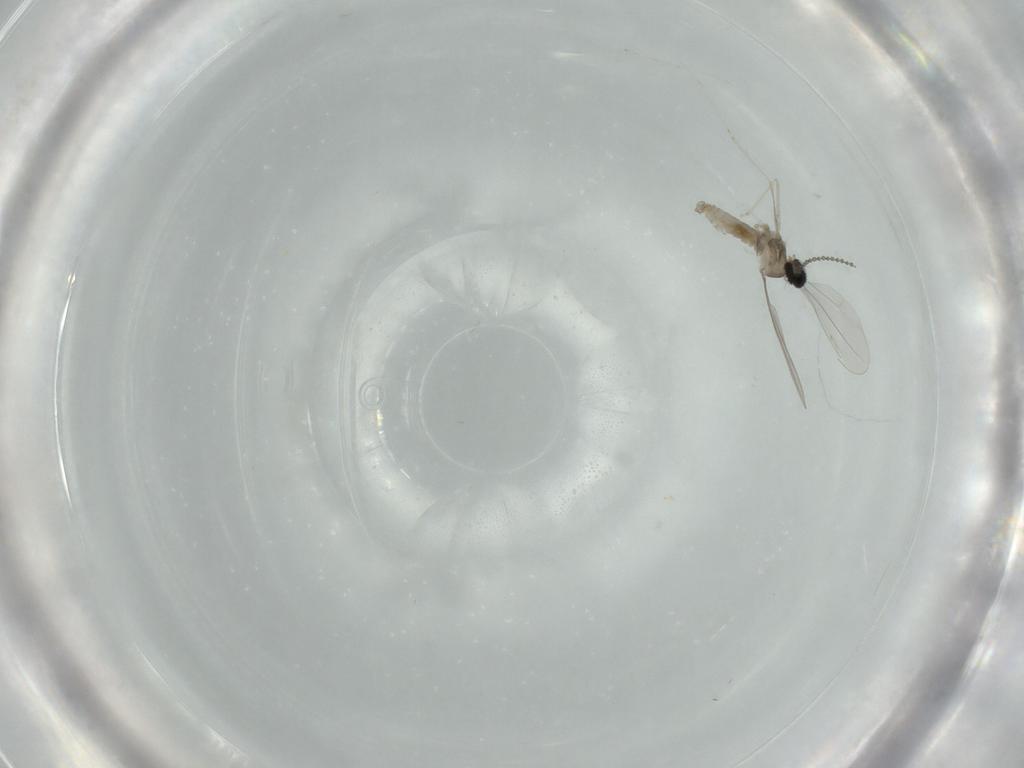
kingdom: Animalia
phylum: Arthropoda
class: Insecta
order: Diptera
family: Cecidomyiidae
